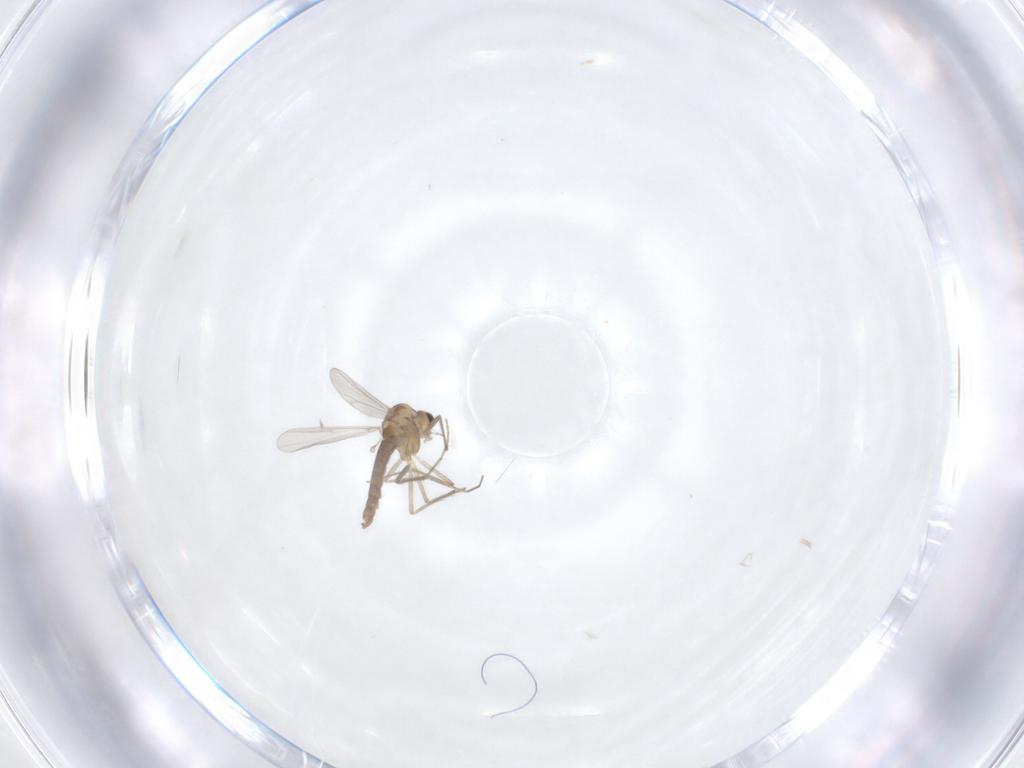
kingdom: Animalia
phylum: Arthropoda
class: Insecta
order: Diptera
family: Chironomidae
